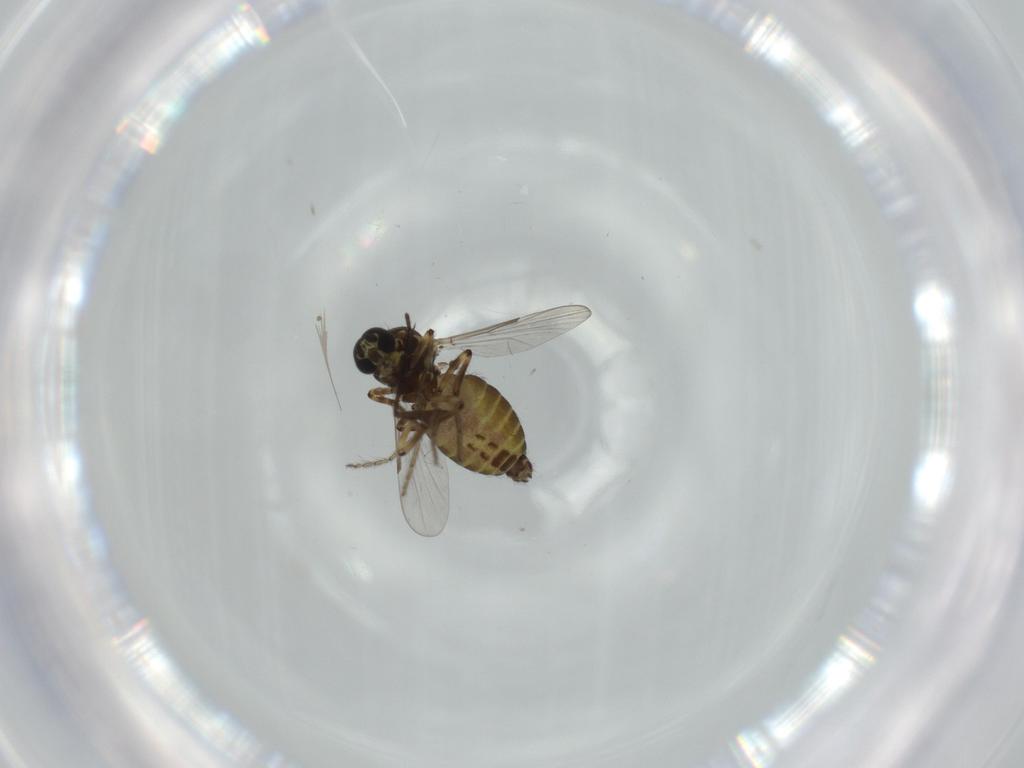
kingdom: Animalia
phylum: Arthropoda
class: Insecta
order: Diptera
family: Ceratopogonidae
